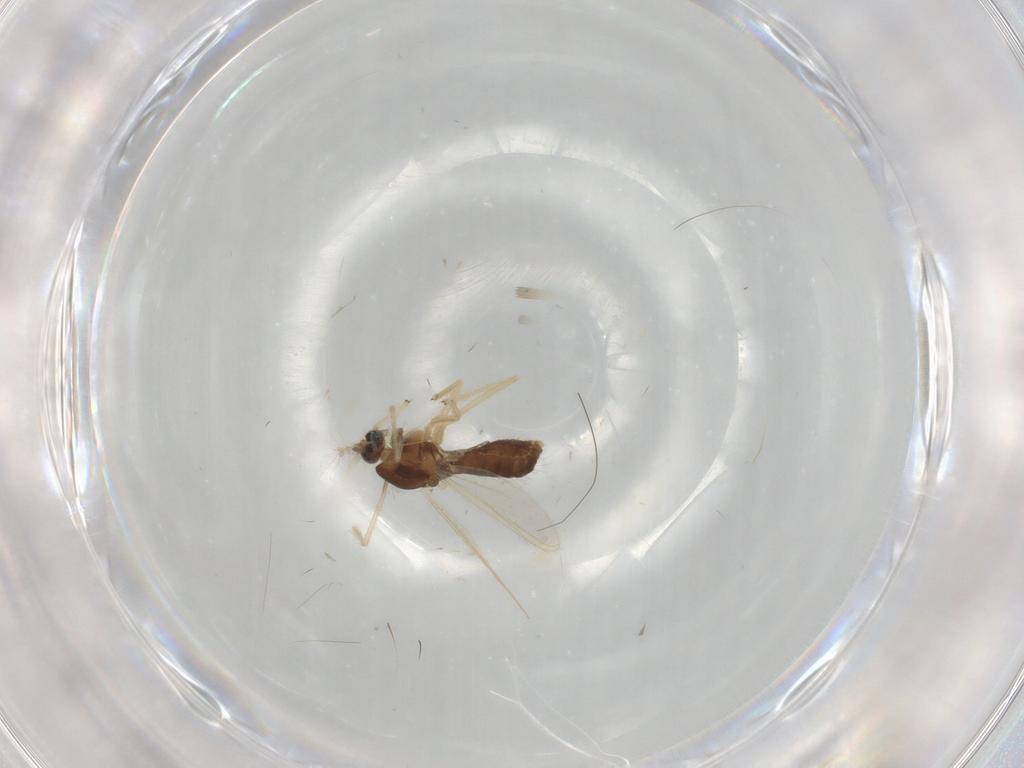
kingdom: Animalia
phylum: Arthropoda
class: Insecta
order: Diptera
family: Chironomidae
